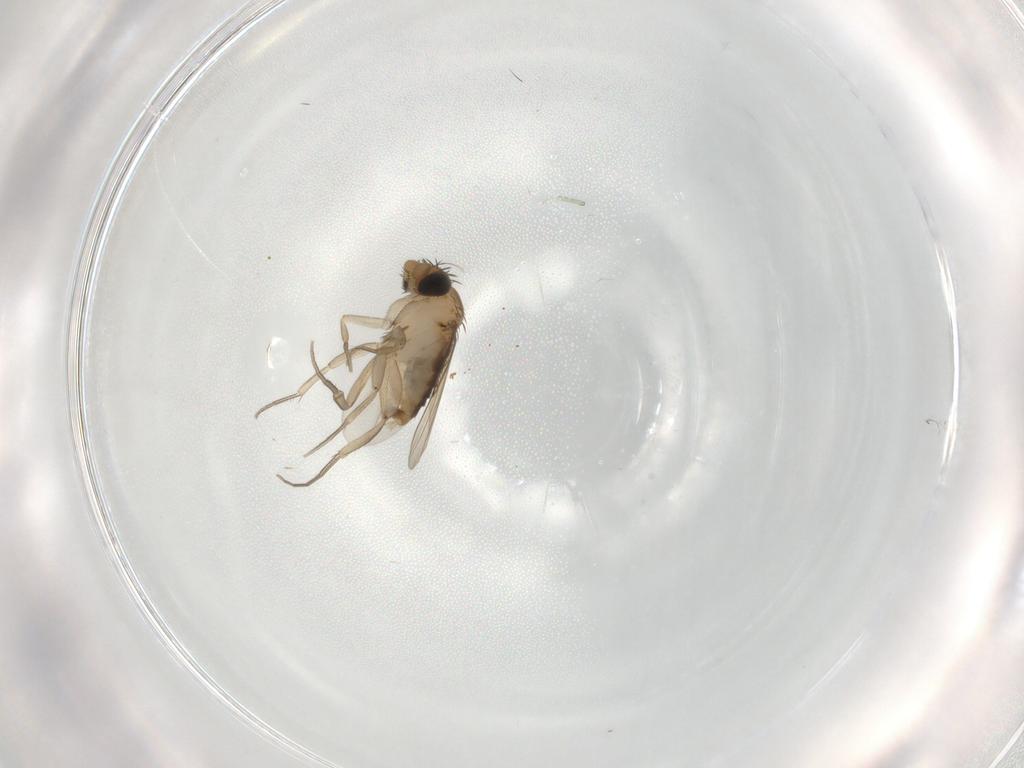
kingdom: Animalia
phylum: Arthropoda
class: Insecta
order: Diptera
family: Phoridae
